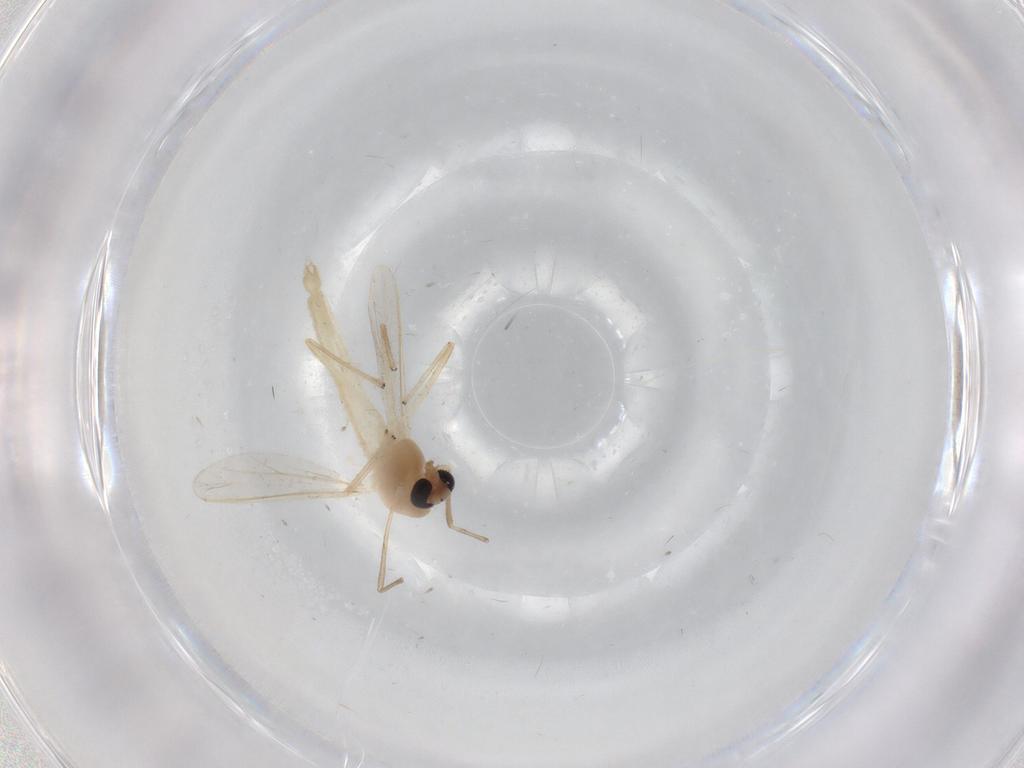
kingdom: Animalia
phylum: Arthropoda
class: Insecta
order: Diptera
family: Chironomidae
